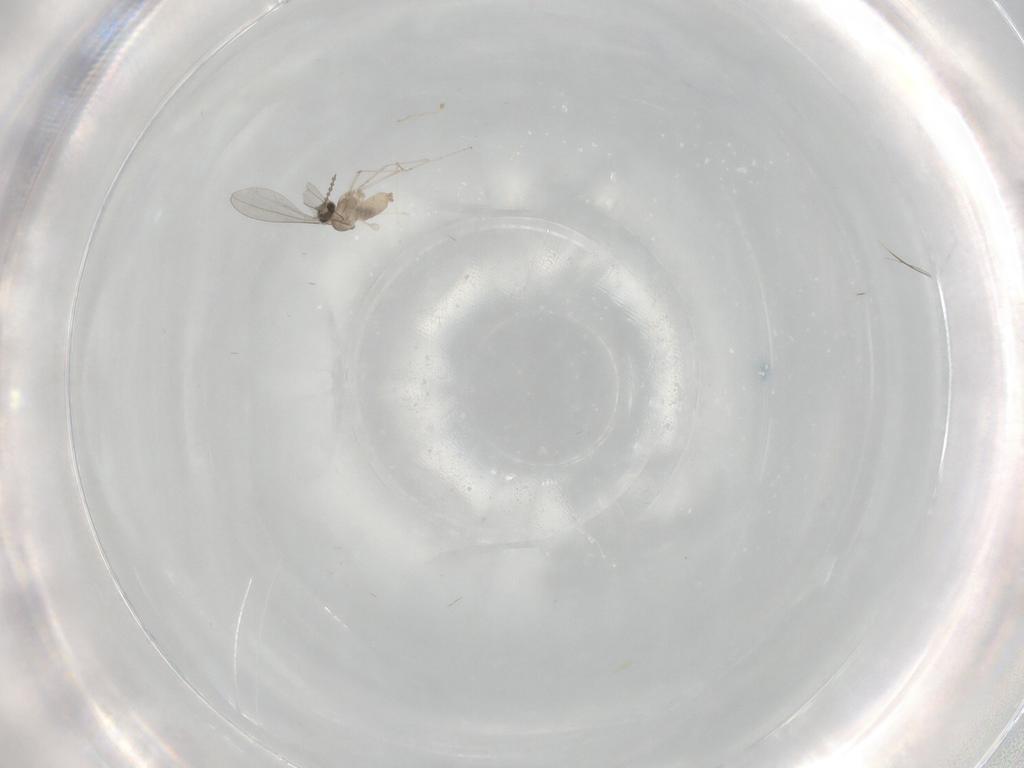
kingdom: Animalia
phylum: Arthropoda
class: Insecta
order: Diptera
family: Cecidomyiidae
